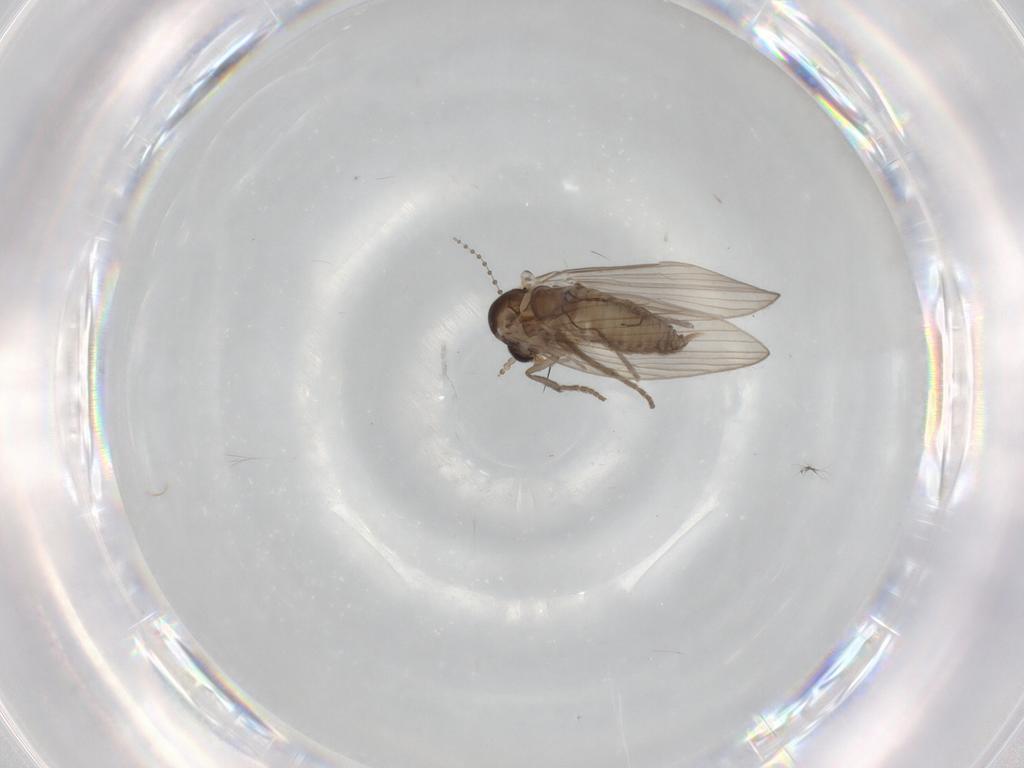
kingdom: Animalia
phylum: Arthropoda
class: Insecta
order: Diptera
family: Psychodidae
